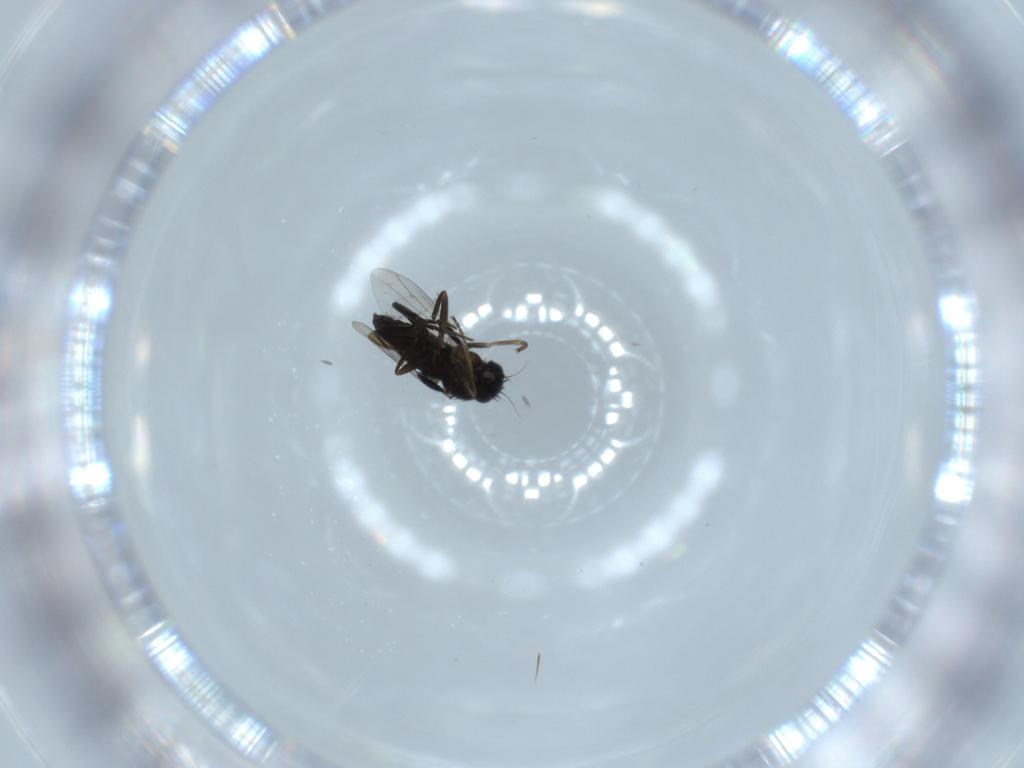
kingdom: Animalia
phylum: Arthropoda
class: Insecta
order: Diptera
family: Phoridae
